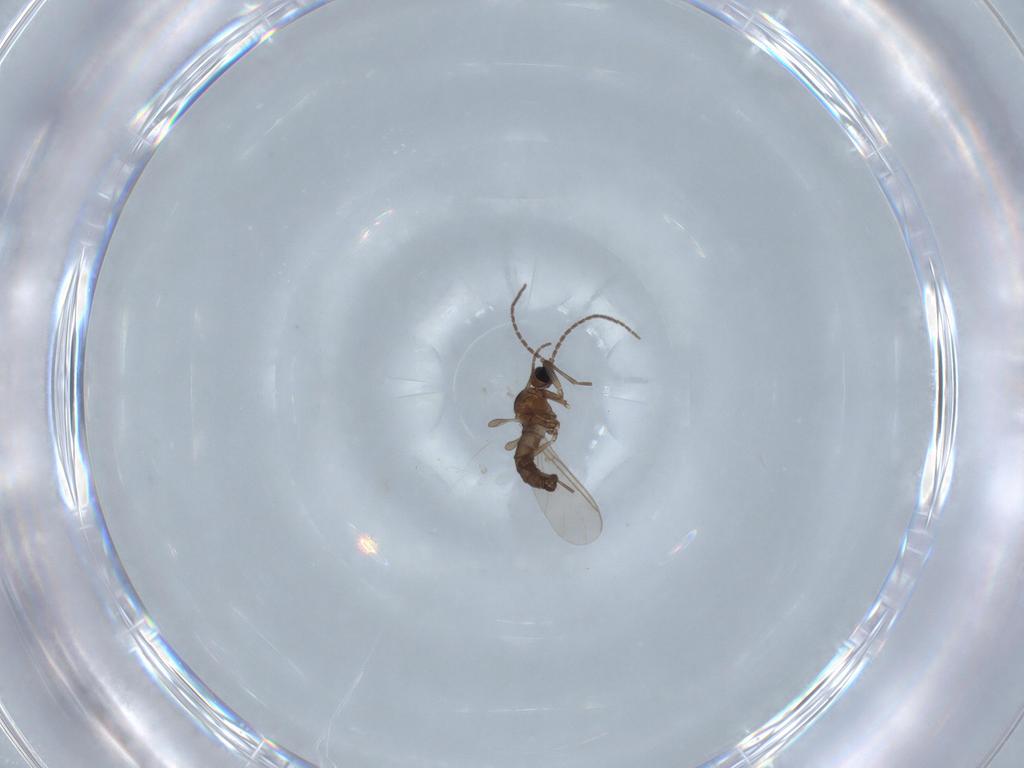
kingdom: Animalia
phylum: Arthropoda
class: Insecta
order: Diptera
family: Sciaridae
